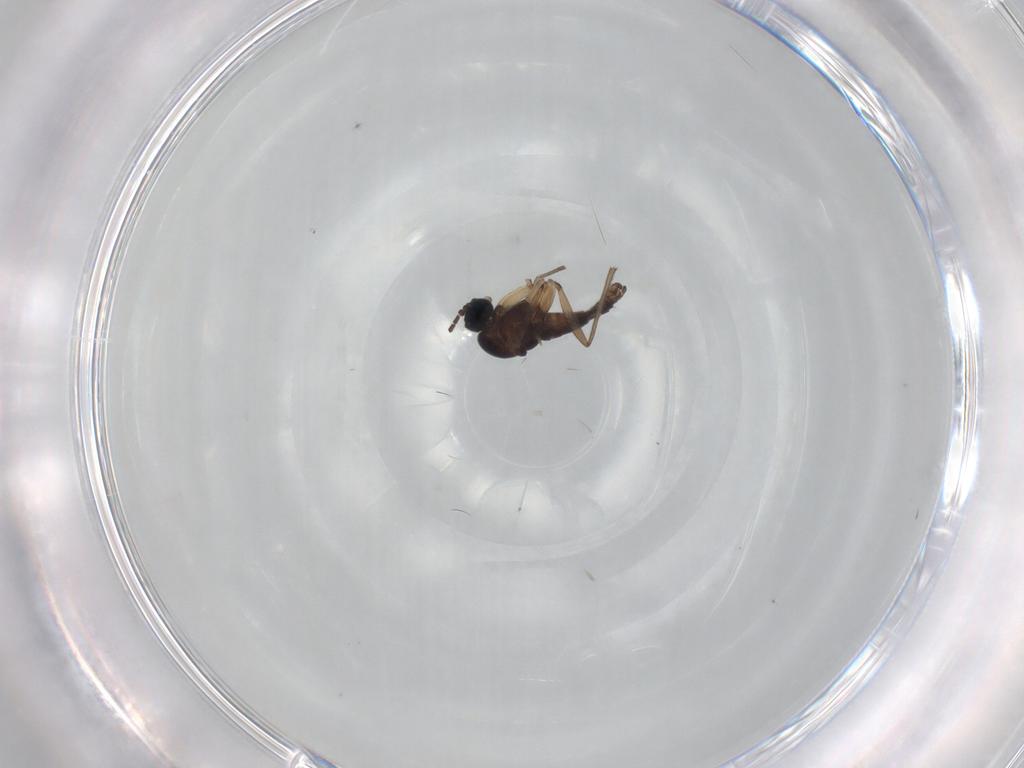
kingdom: Animalia
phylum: Arthropoda
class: Insecta
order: Diptera
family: Sciaridae
